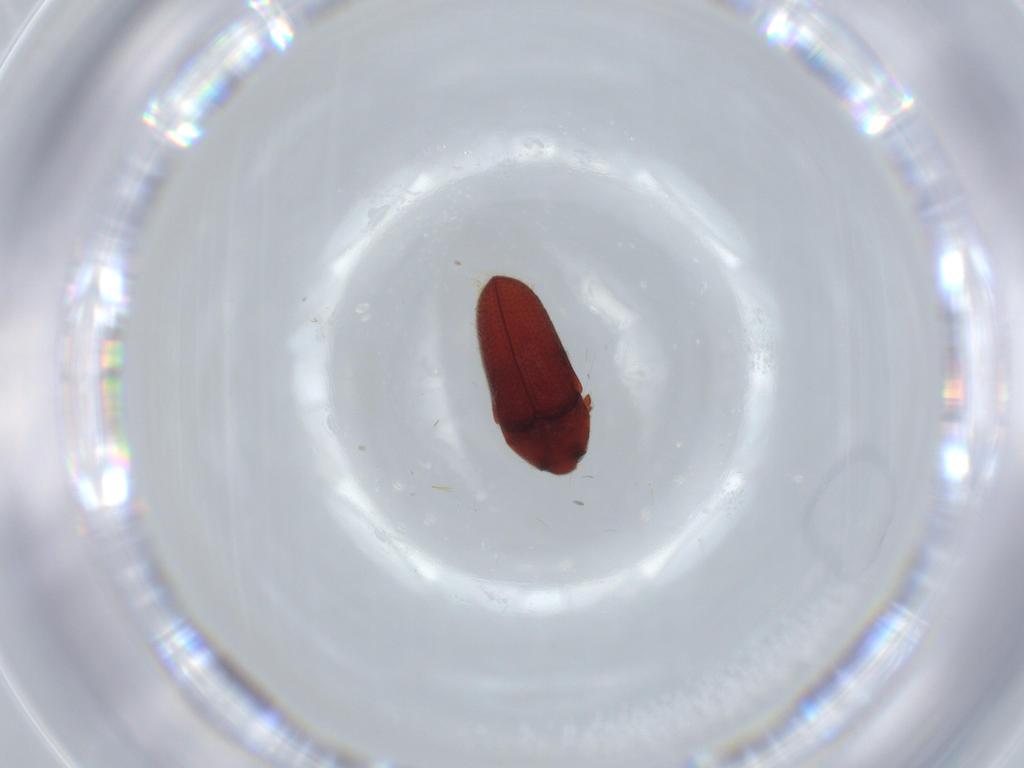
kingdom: Animalia
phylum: Arthropoda
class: Insecta
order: Coleoptera
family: Throscidae
